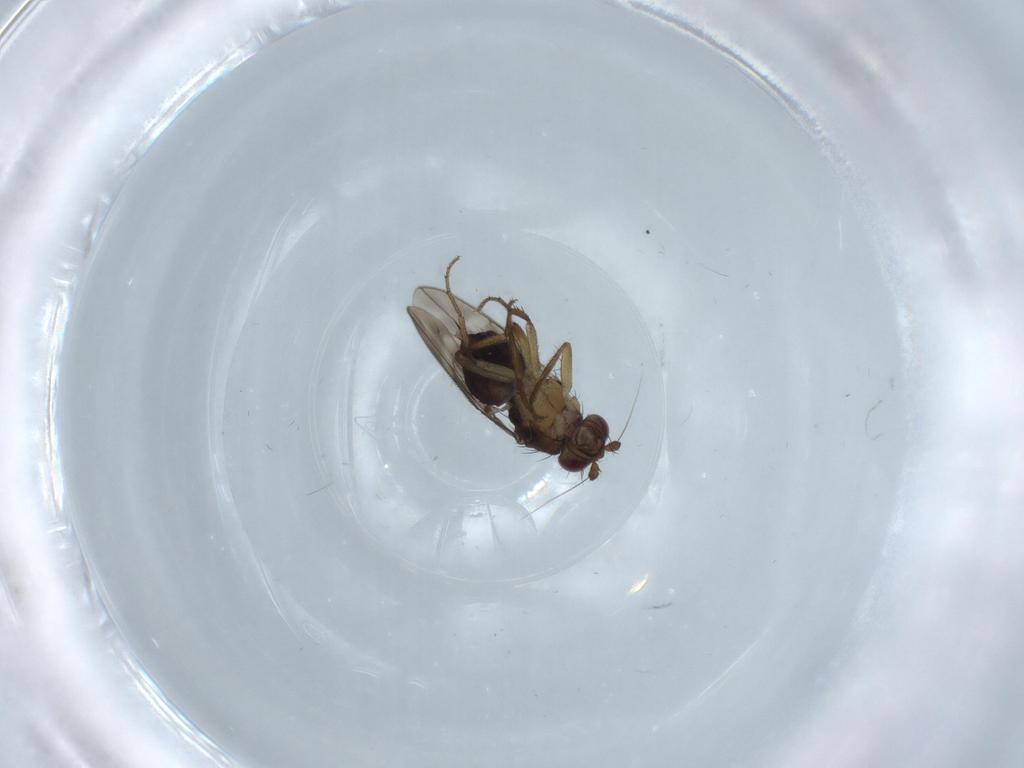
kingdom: Animalia
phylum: Arthropoda
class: Insecta
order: Diptera
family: Sphaeroceridae
